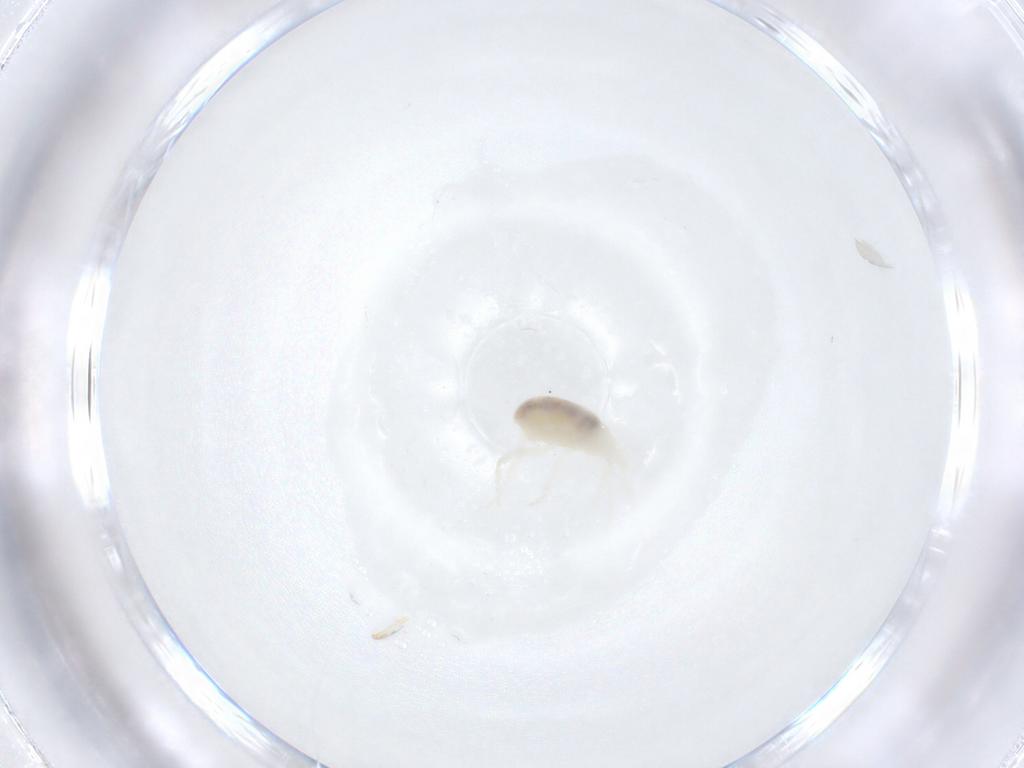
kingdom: Animalia
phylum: Arthropoda
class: Arachnida
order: Trombidiformes
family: Rhagidiidae
